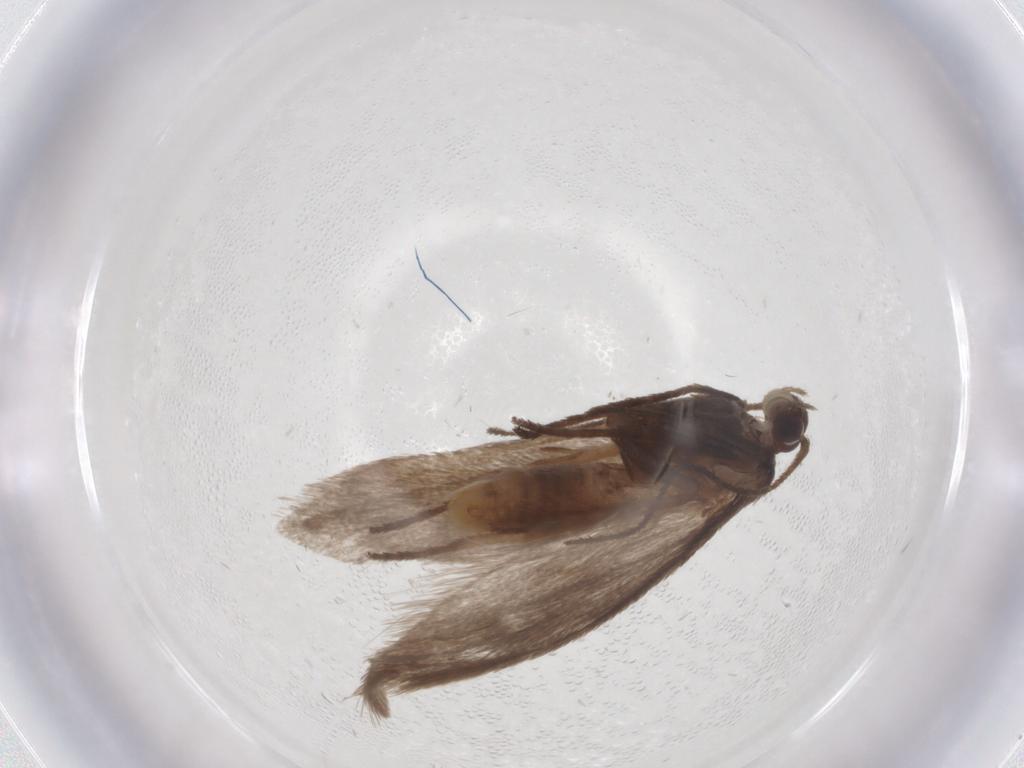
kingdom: Animalia
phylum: Arthropoda
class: Insecta
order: Lepidoptera
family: Limacodidae
